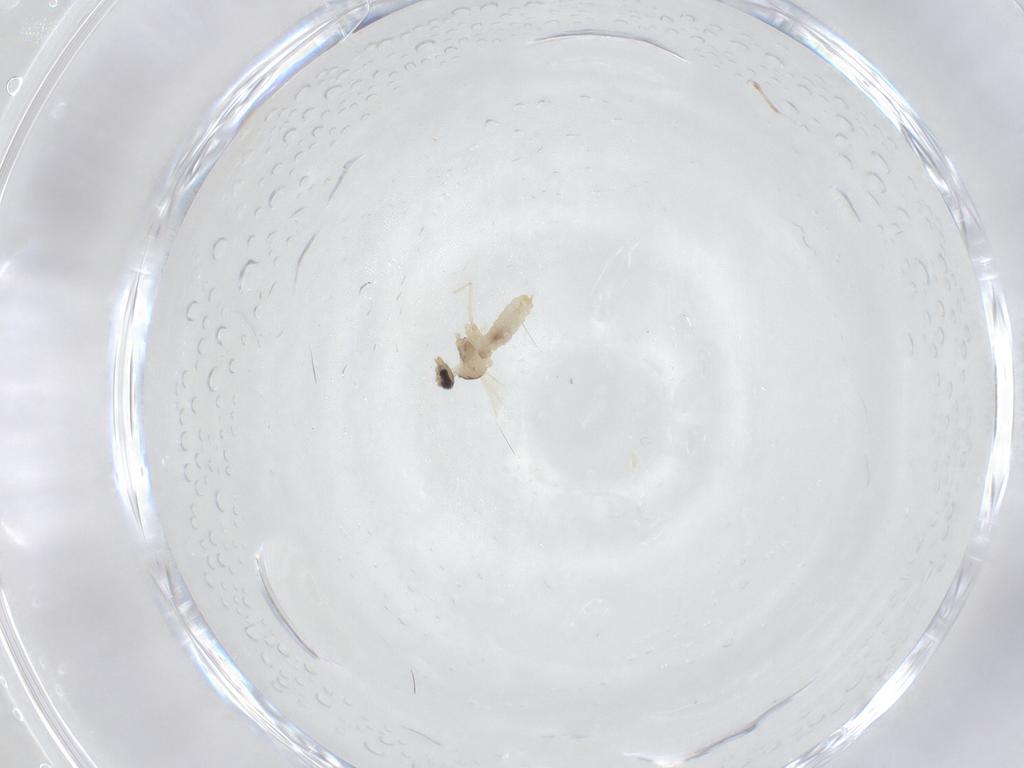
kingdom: Animalia
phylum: Arthropoda
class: Insecta
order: Diptera
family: Cecidomyiidae
